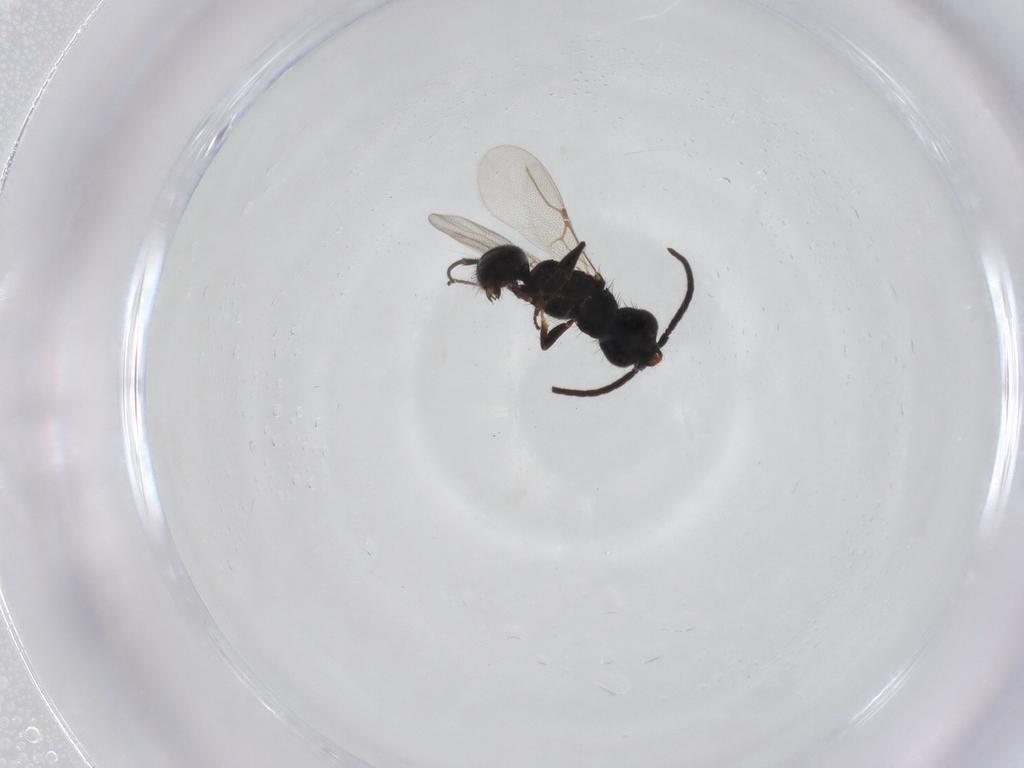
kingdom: Animalia
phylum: Arthropoda
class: Insecta
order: Hymenoptera
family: Bethylidae
